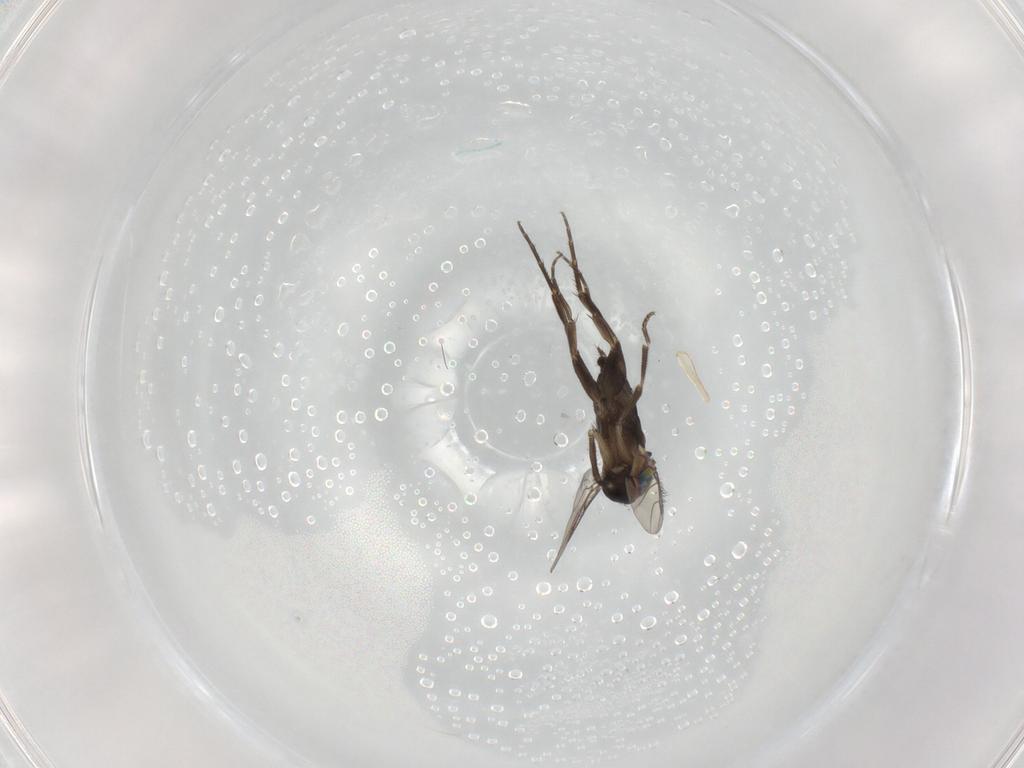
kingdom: Animalia
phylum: Arthropoda
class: Insecta
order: Diptera
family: Phoridae
